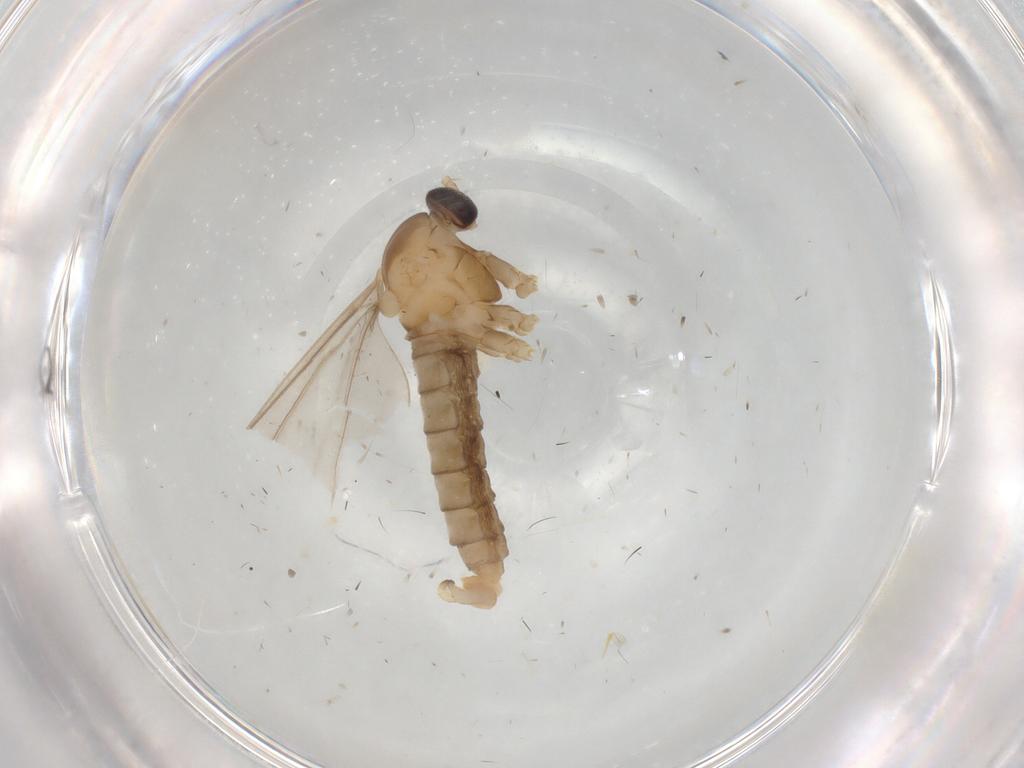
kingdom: Animalia
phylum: Arthropoda
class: Insecta
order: Diptera
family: Cecidomyiidae
